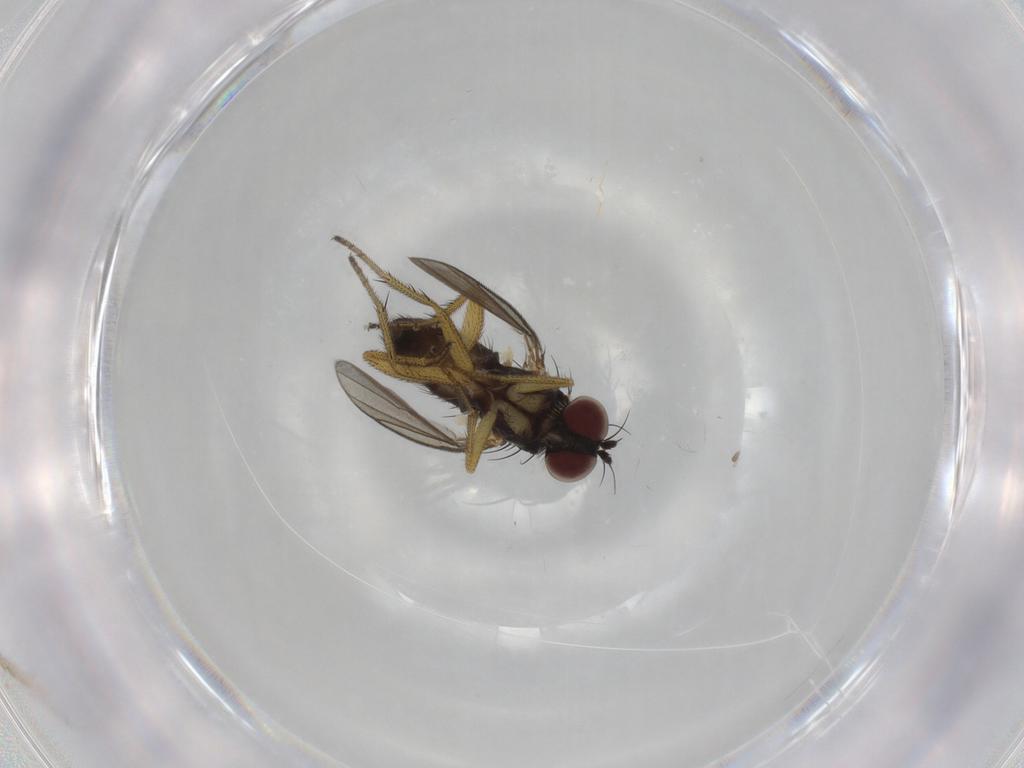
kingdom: Animalia
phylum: Arthropoda
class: Insecta
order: Diptera
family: Dolichopodidae
